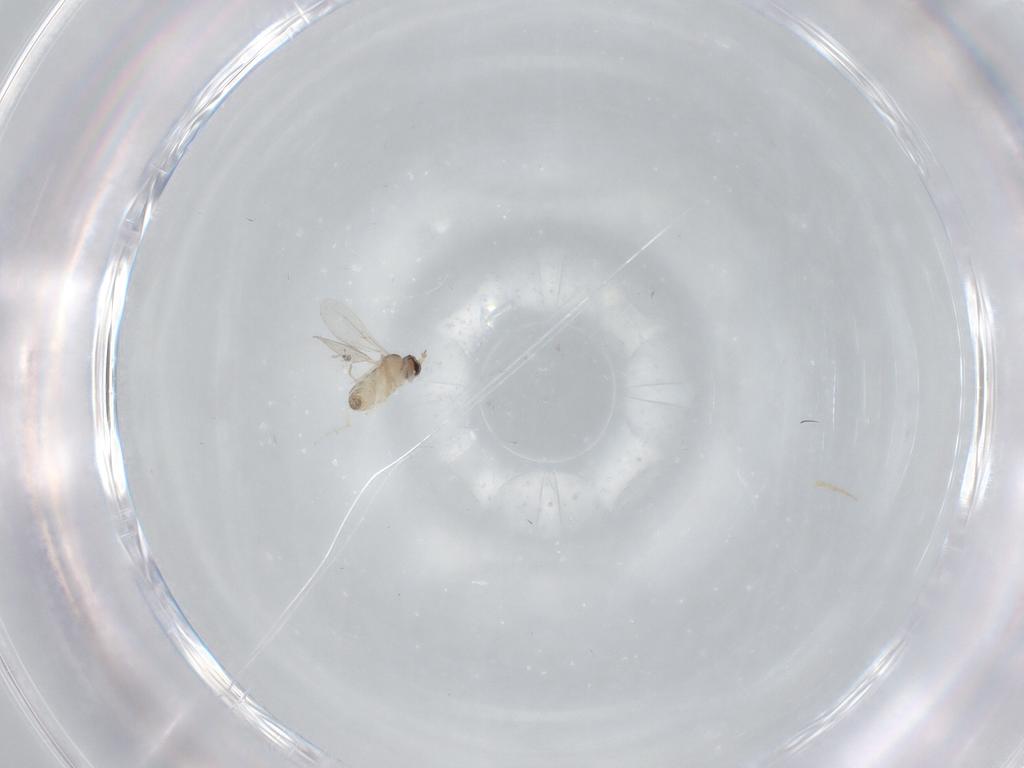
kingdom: Animalia
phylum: Arthropoda
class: Insecta
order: Diptera
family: Cecidomyiidae
